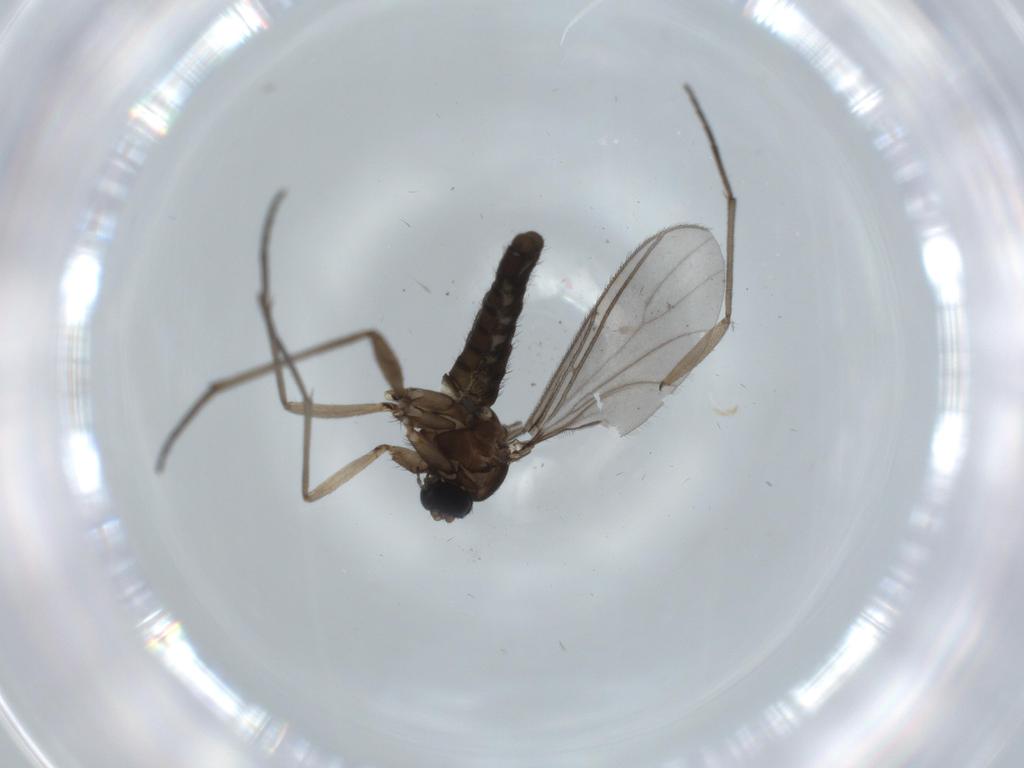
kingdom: Animalia
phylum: Arthropoda
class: Insecta
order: Diptera
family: Sciaridae
